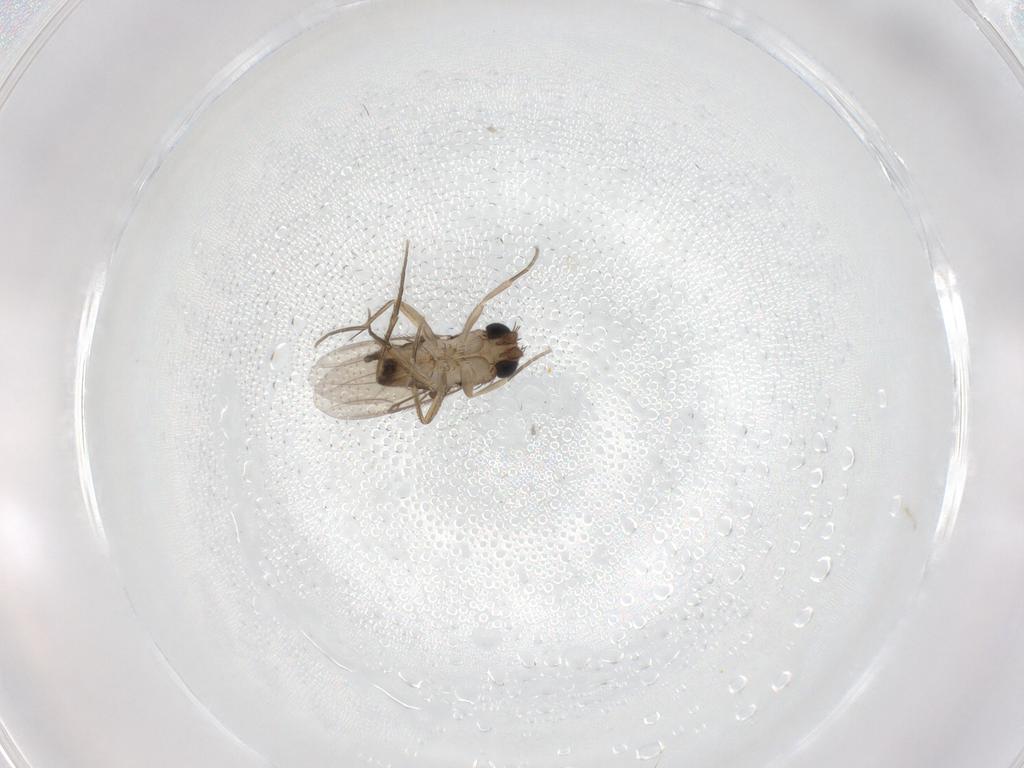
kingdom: Animalia
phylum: Arthropoda
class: Insecta
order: Diptera
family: Phoridae
